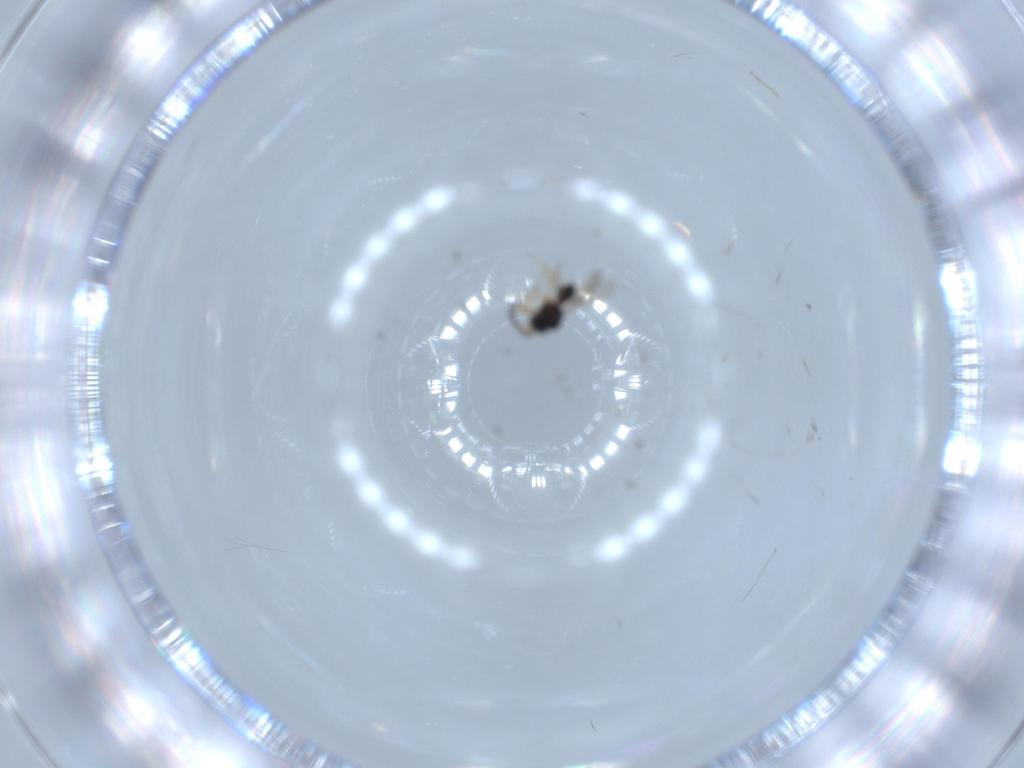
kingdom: Animalia
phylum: Arthropoda
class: Insecta
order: Hymenoptera
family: Scelionidae
